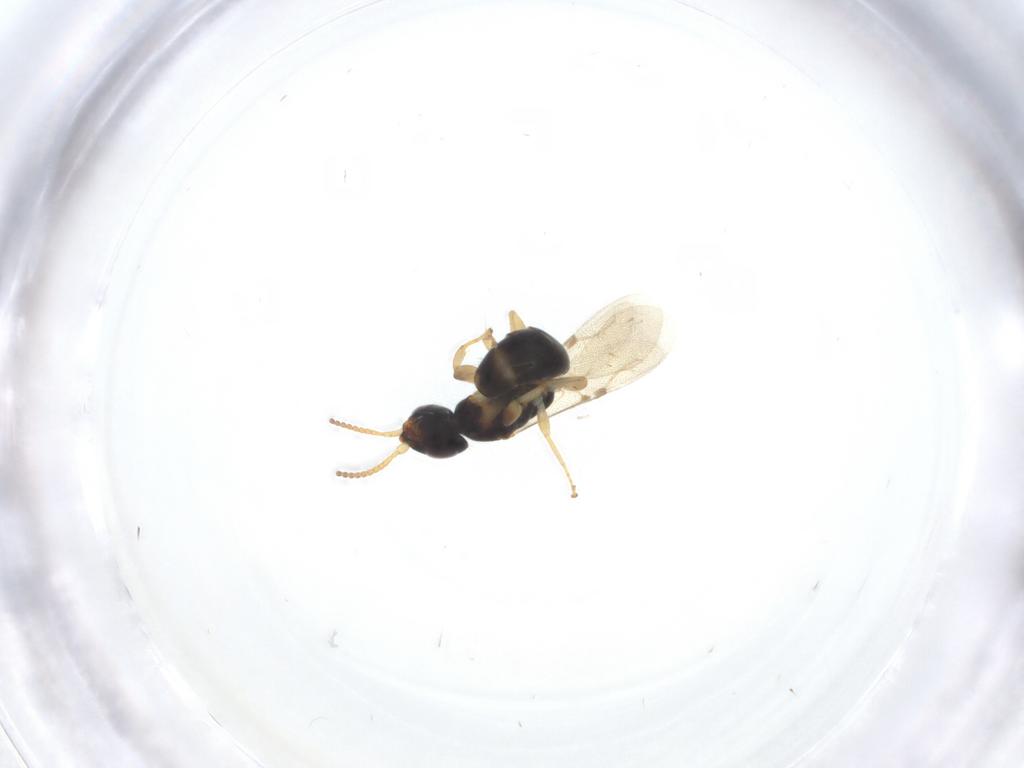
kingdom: Animalia
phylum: Arthropoda
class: Insecta
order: Hymenoptera
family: Bethylidae
